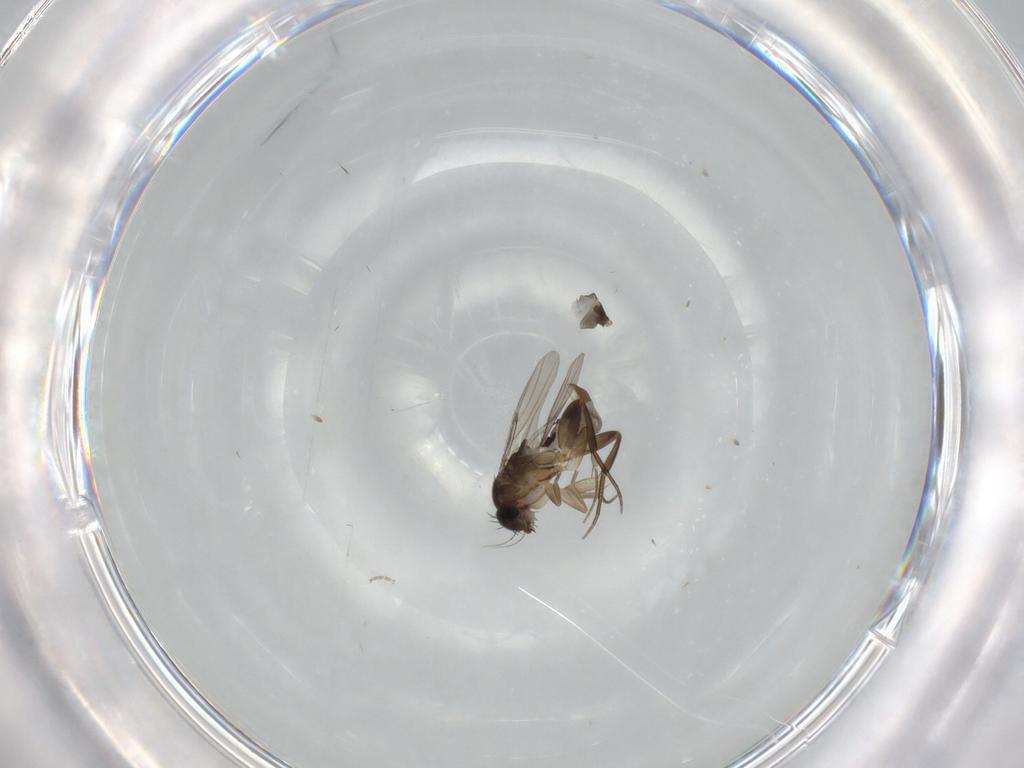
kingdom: Animalia
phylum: Arthropoda
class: Insecta
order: Diptera
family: Phoridae
